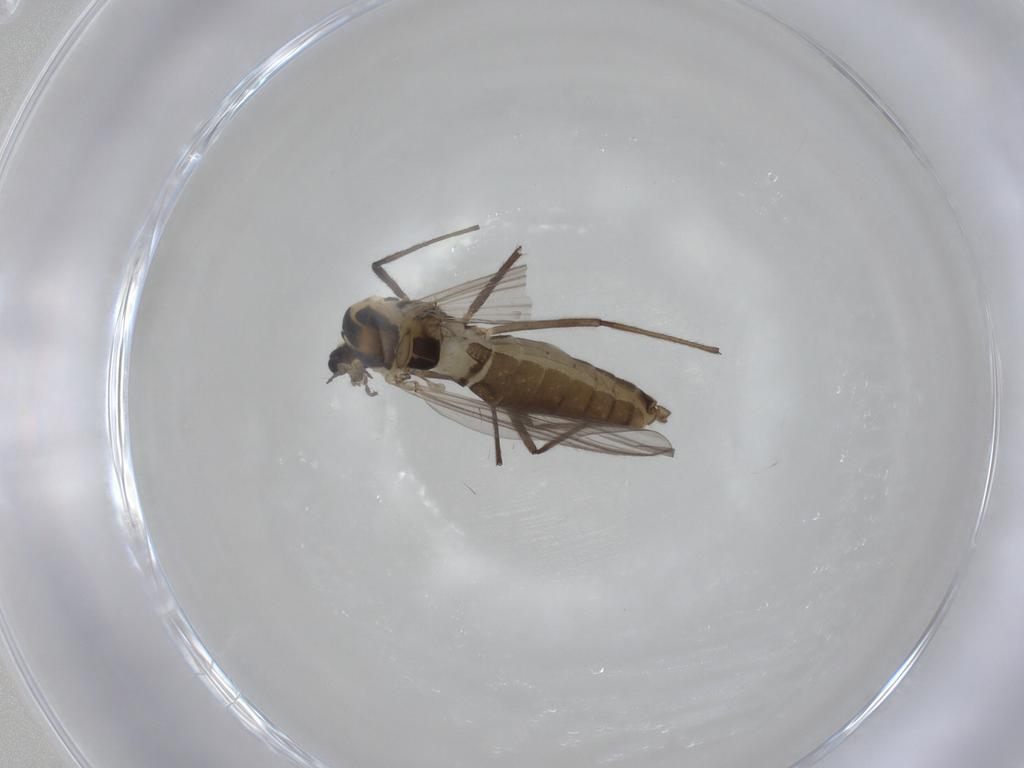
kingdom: Animalia
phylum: Arthropoda
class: Insecta
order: Diptera
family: Chironomidae
